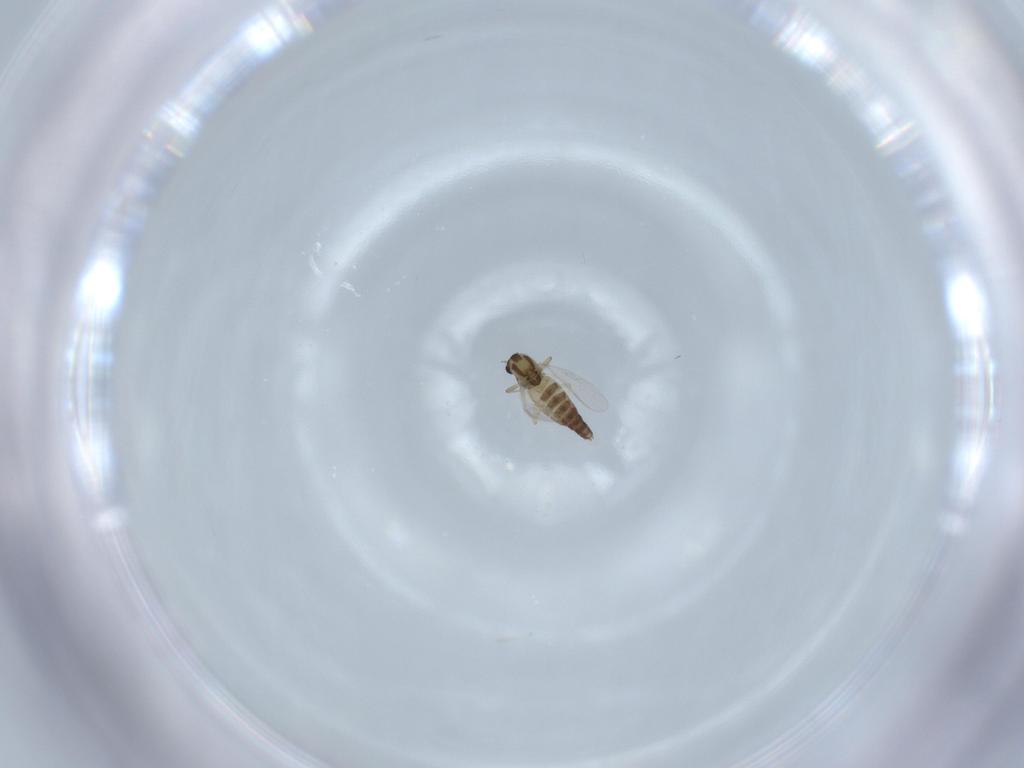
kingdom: Animalia
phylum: Arthropoda
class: Insecta
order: Diptera
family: Chironomidae
